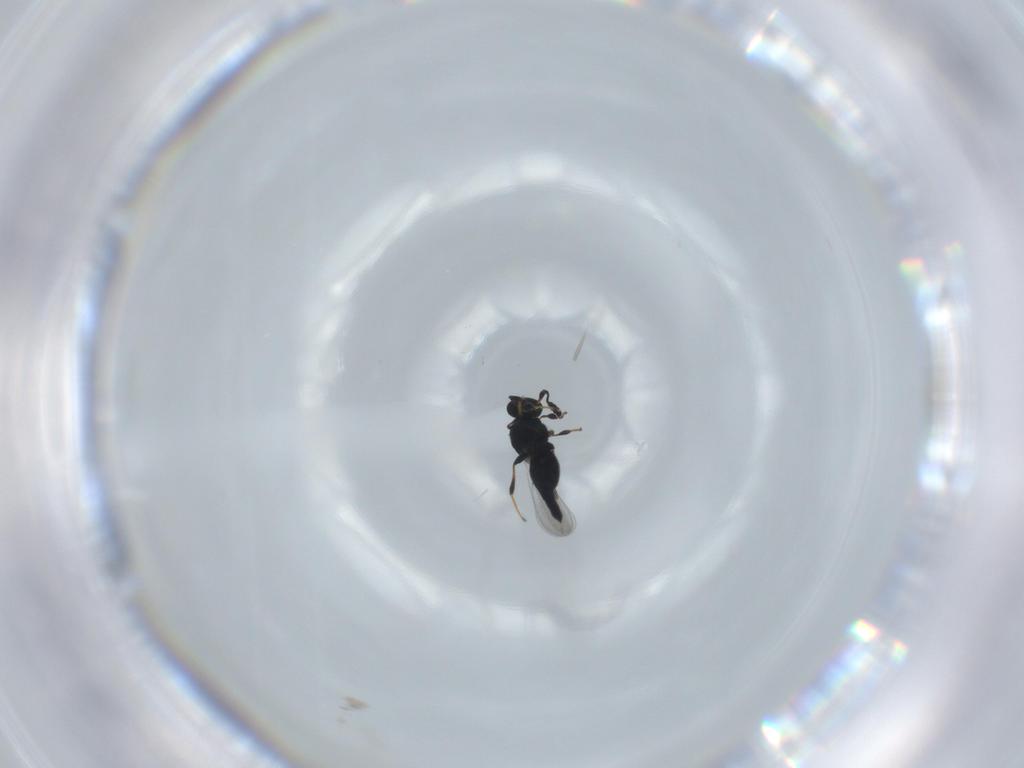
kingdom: Animalia
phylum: Arthropoda
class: Insecta
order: Hymenoptera
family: Platygastridae
